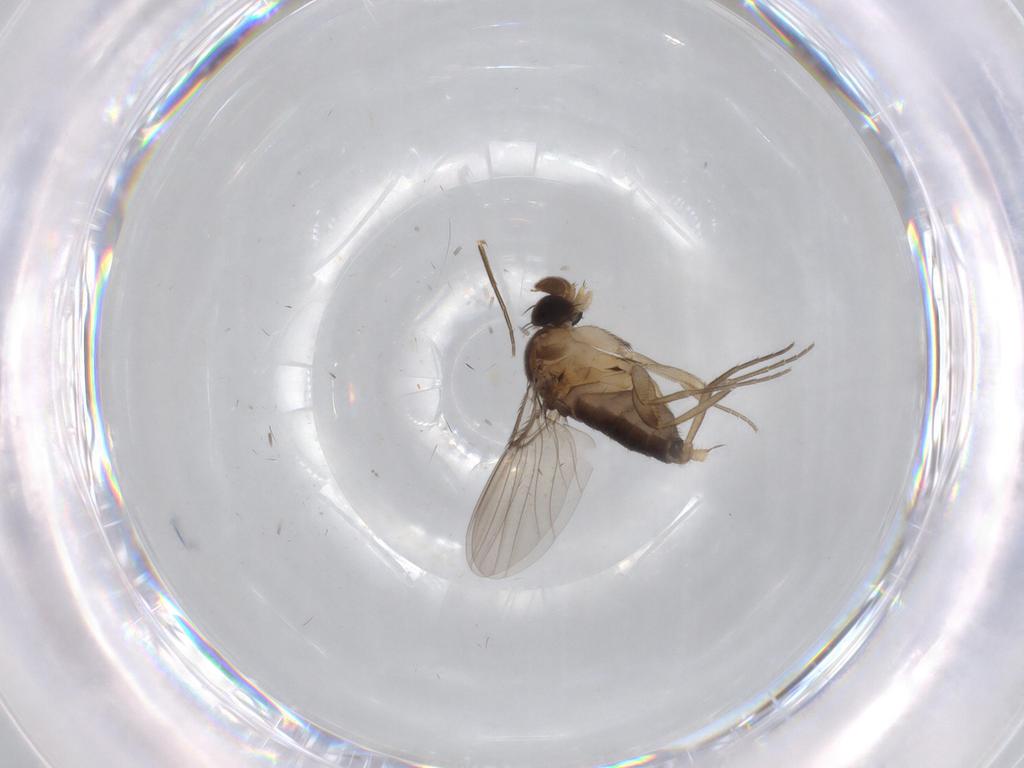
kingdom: Animalia
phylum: Arthropoda
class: Insecta
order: Diptera
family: Phoridae
